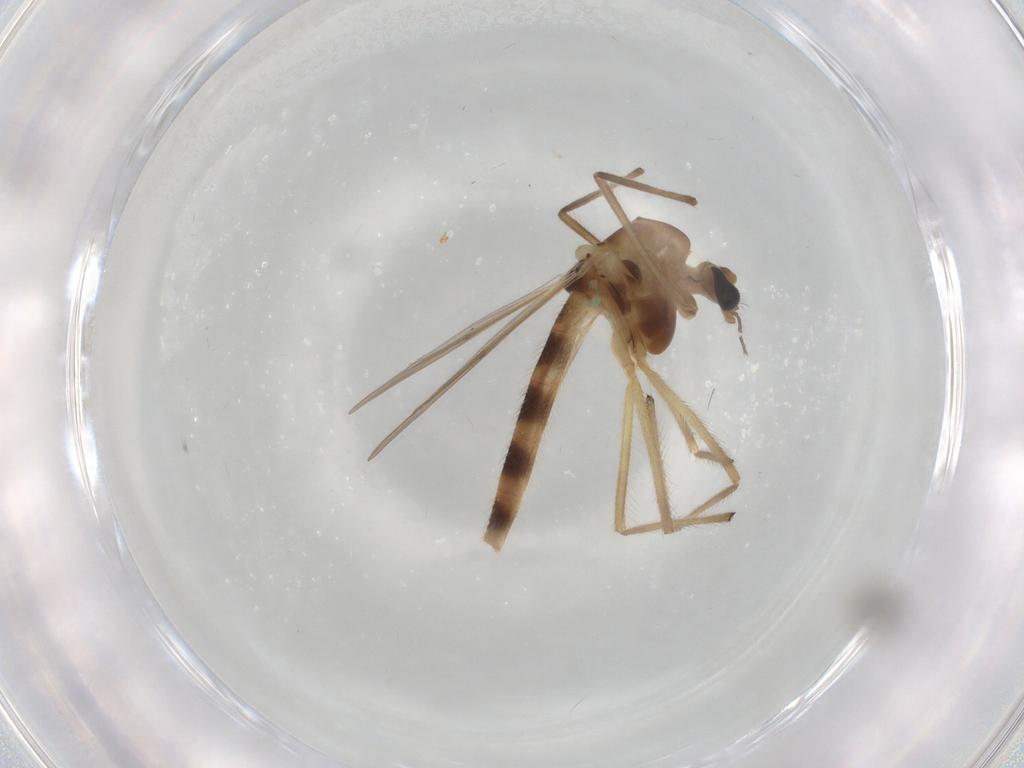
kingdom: Animalia
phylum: Arthropoda
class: Insecta
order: Diptera
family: Chironomidae
